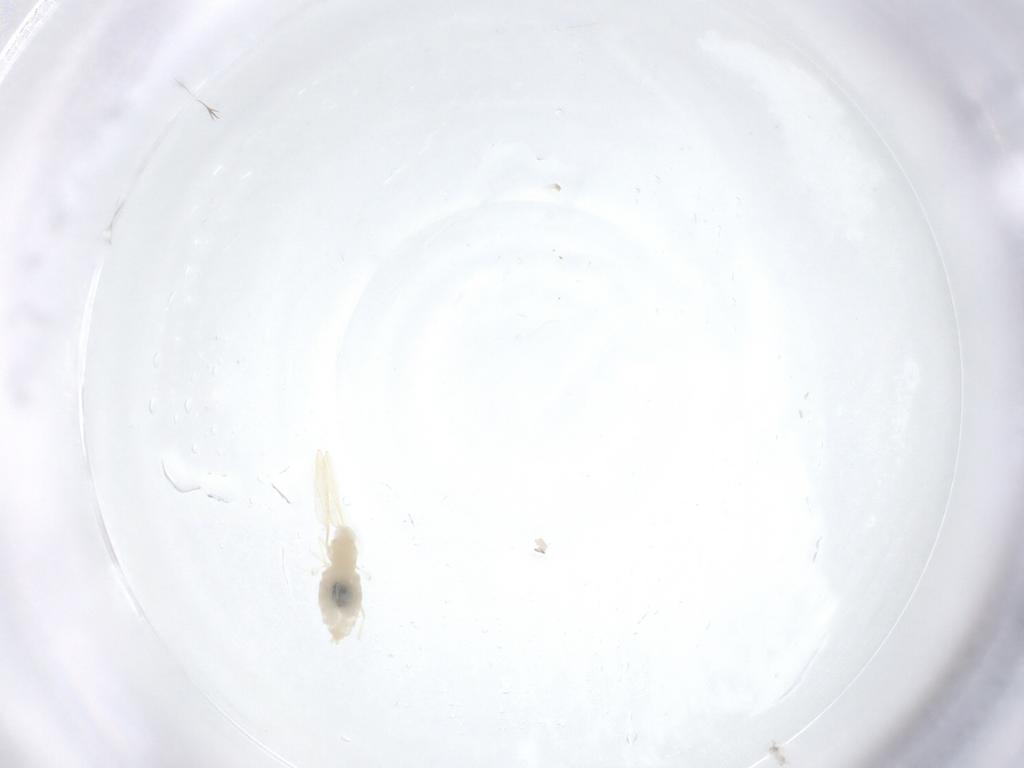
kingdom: Animalia
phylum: Arthropoda
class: Insecta
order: Diptera
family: Cecidomyiidae
